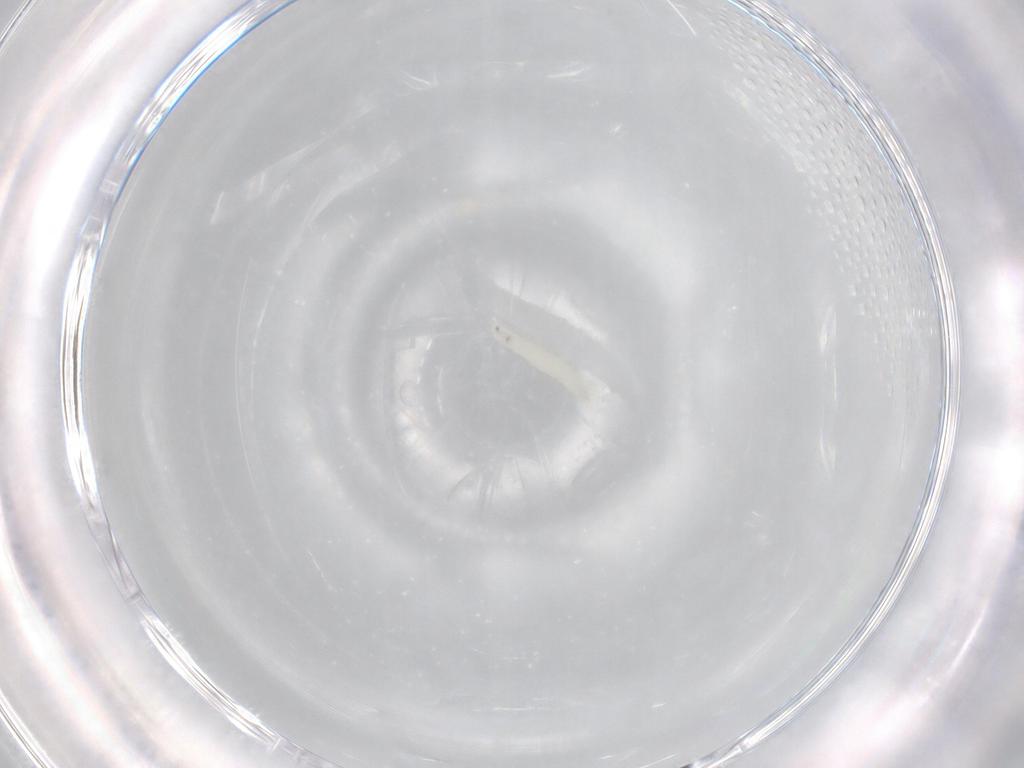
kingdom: Animalia
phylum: Arthropoda
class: Insecta
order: Diptera
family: Sarcophagidae
